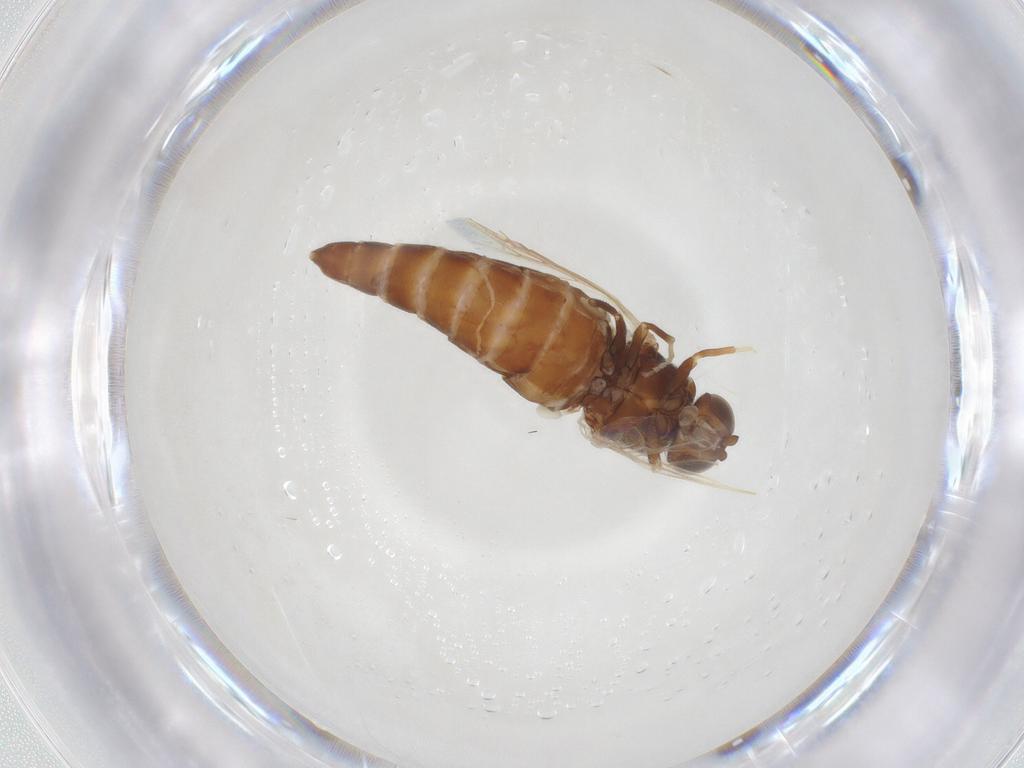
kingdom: Animalia
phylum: Arthropoda
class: Insecta
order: Diptera
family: Scenopinidae
